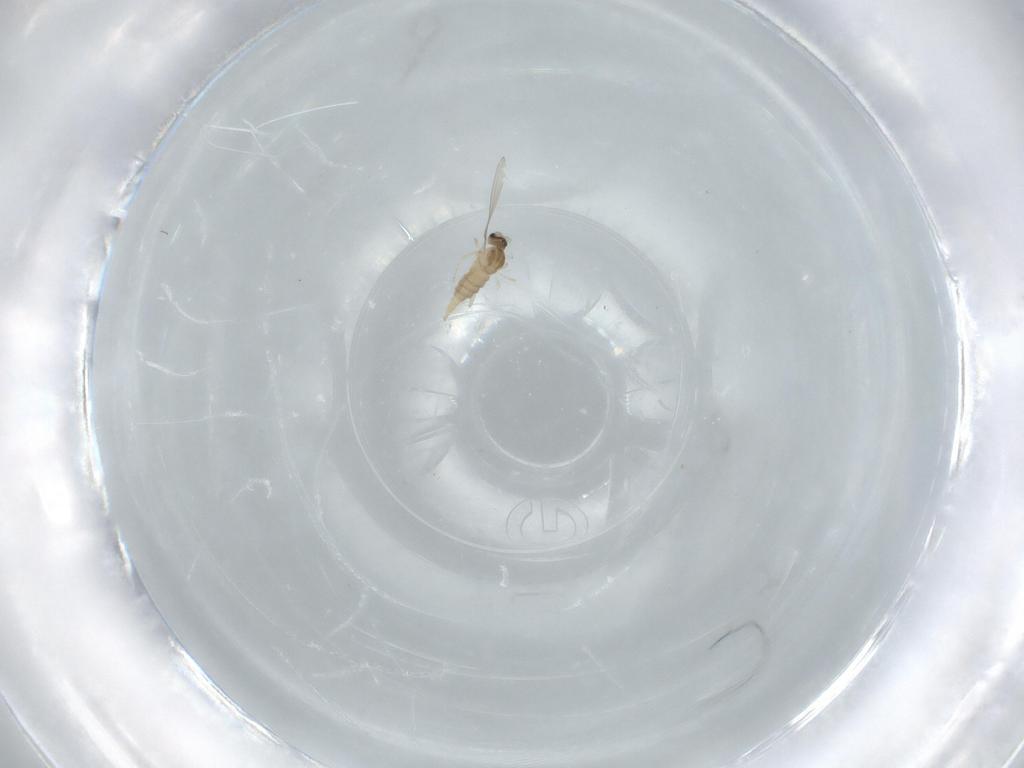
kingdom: Animalia
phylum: Arthropoda
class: Insecta
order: Diptera
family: Cecidomyiidae
